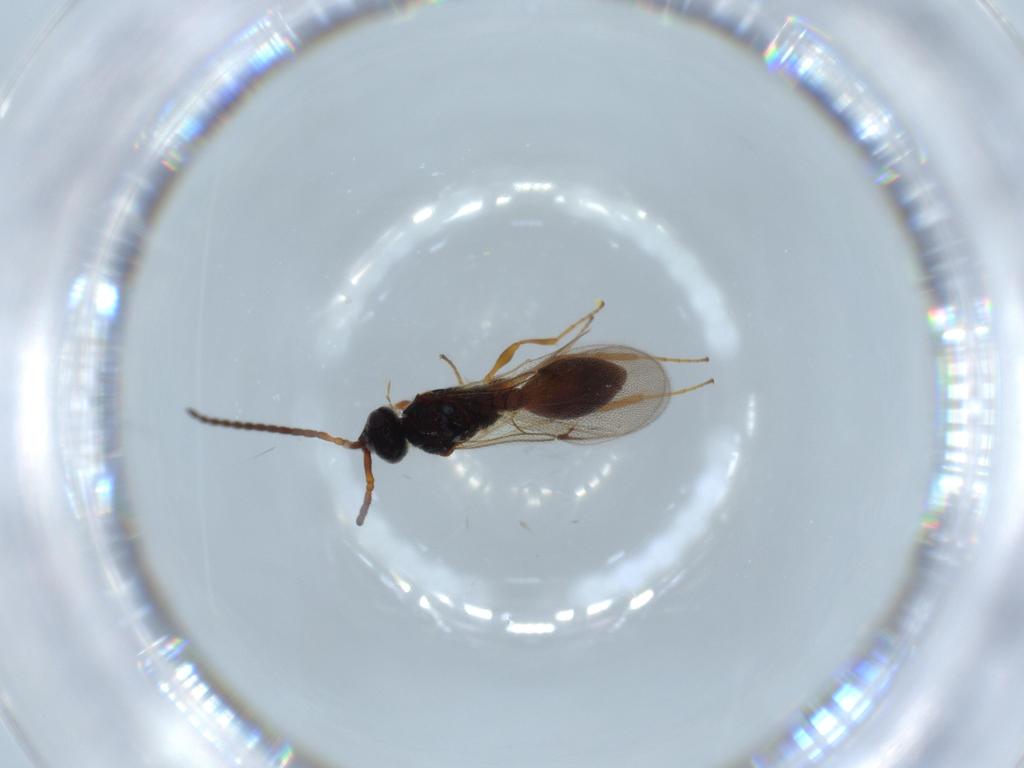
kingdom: Animalia
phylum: Arthropoda
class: Insecta
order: Hymenoptera
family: Diapriidae
